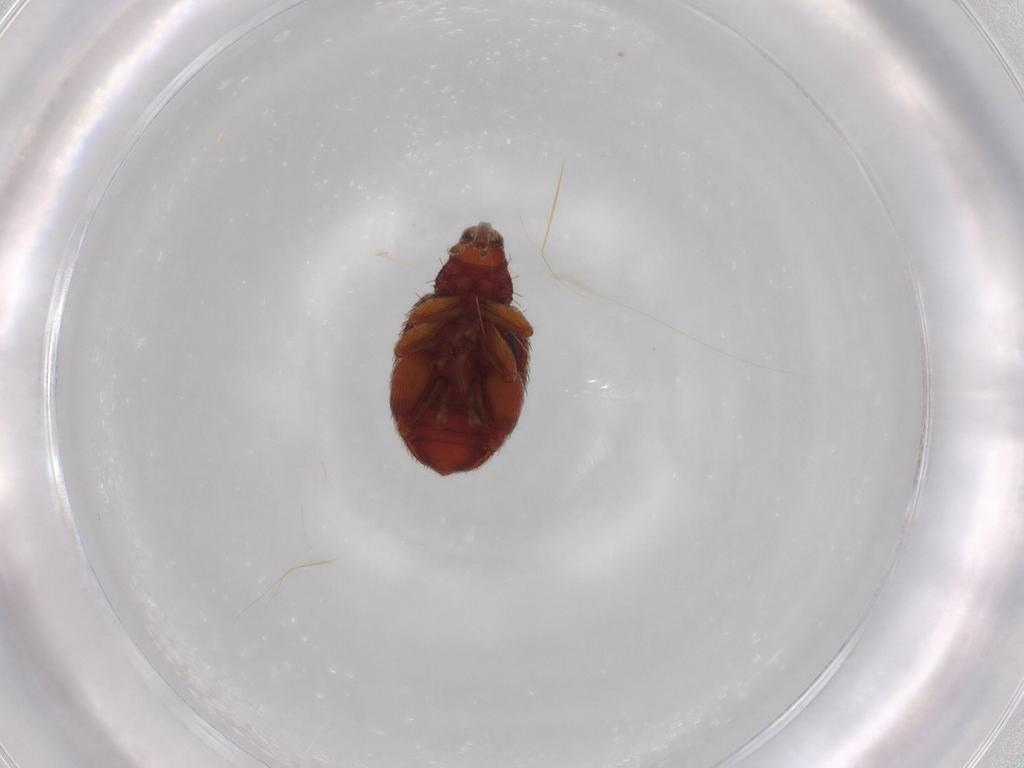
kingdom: Animalia
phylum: Arthropoda
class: Insecta
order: Coleoptera
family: Curculionidae
